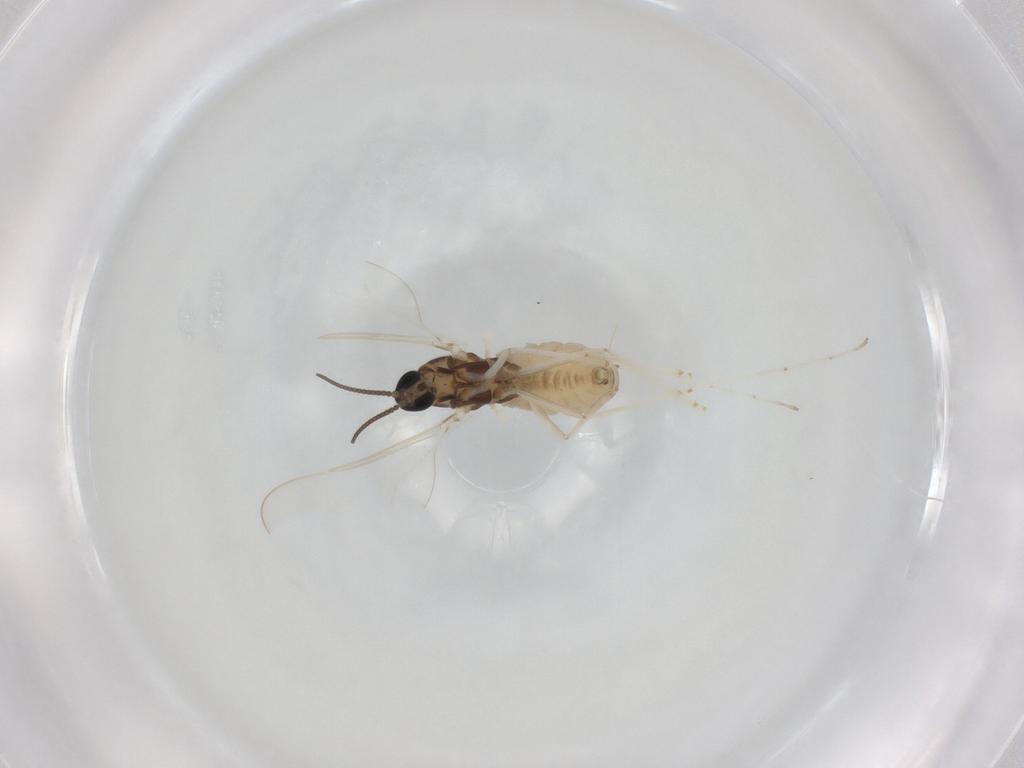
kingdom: Animalia
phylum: Arthropoda
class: Insecta
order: Diptera
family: Cecidomyiidae
